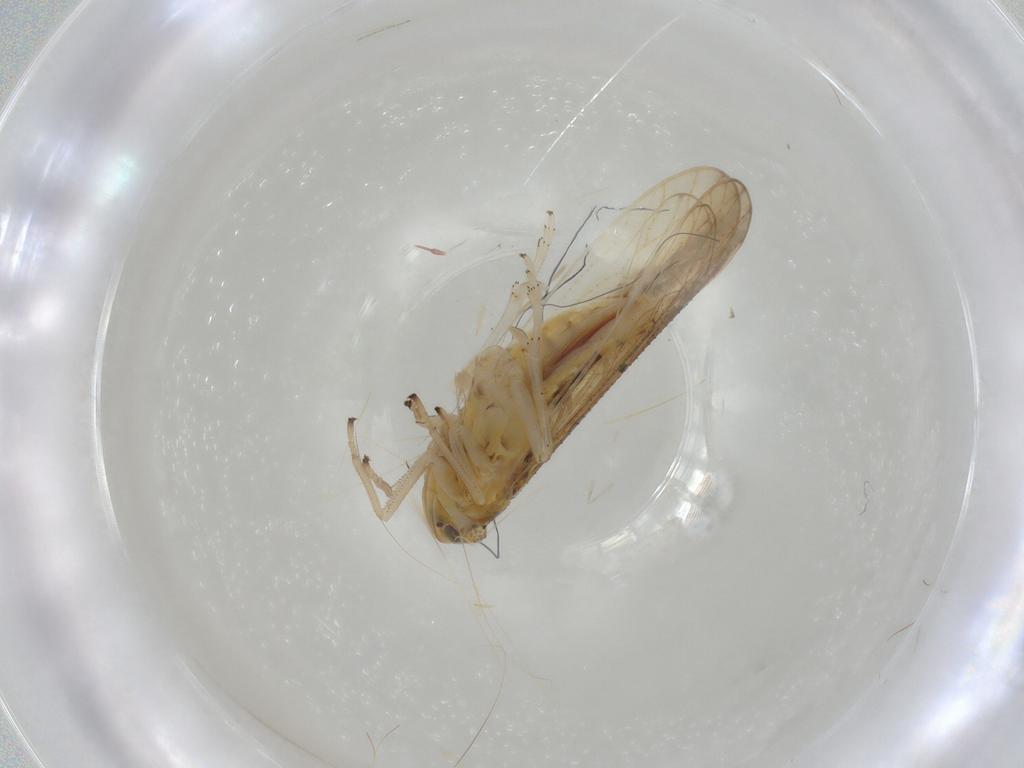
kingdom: Animalia
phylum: Arthropoda
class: Insecta
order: Diptera
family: Cecidomyiidae
